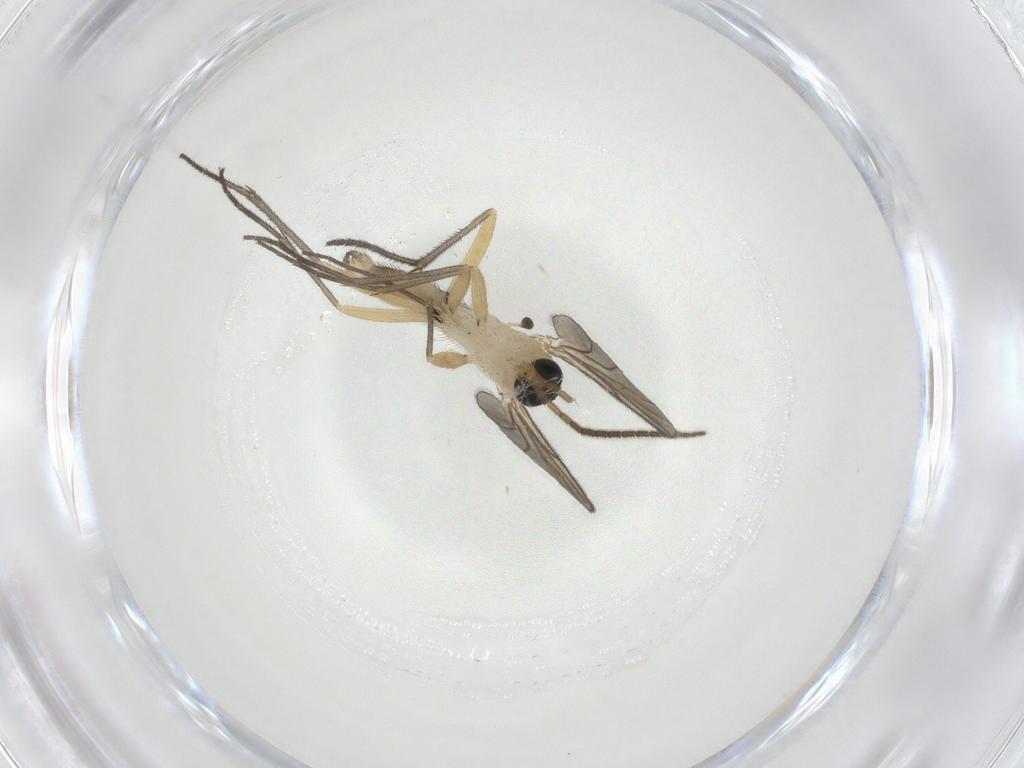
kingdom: Animalia
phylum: Arthropoda
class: Insecta
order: Diptera
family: Sciaridae
